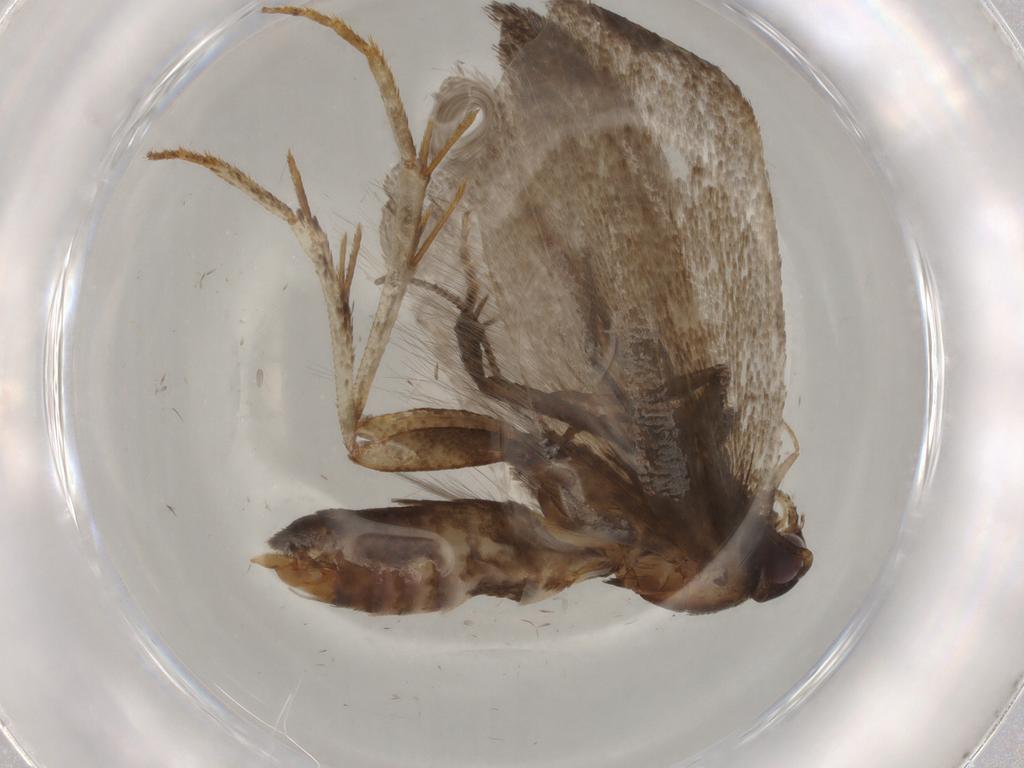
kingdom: Animalia
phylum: Arthropoda
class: Insecta
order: Lepidoptera
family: Gelechiidae
